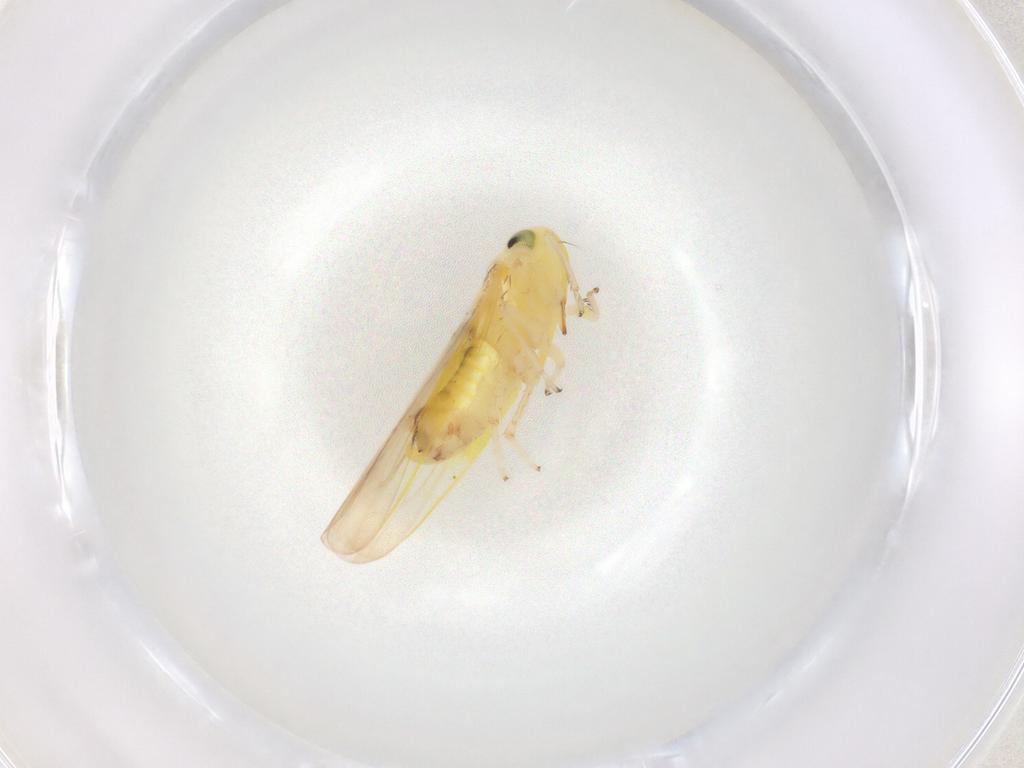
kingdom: Animalia
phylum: Arthropoda
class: Insecta
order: Hemiptera
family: Cicadellidae
